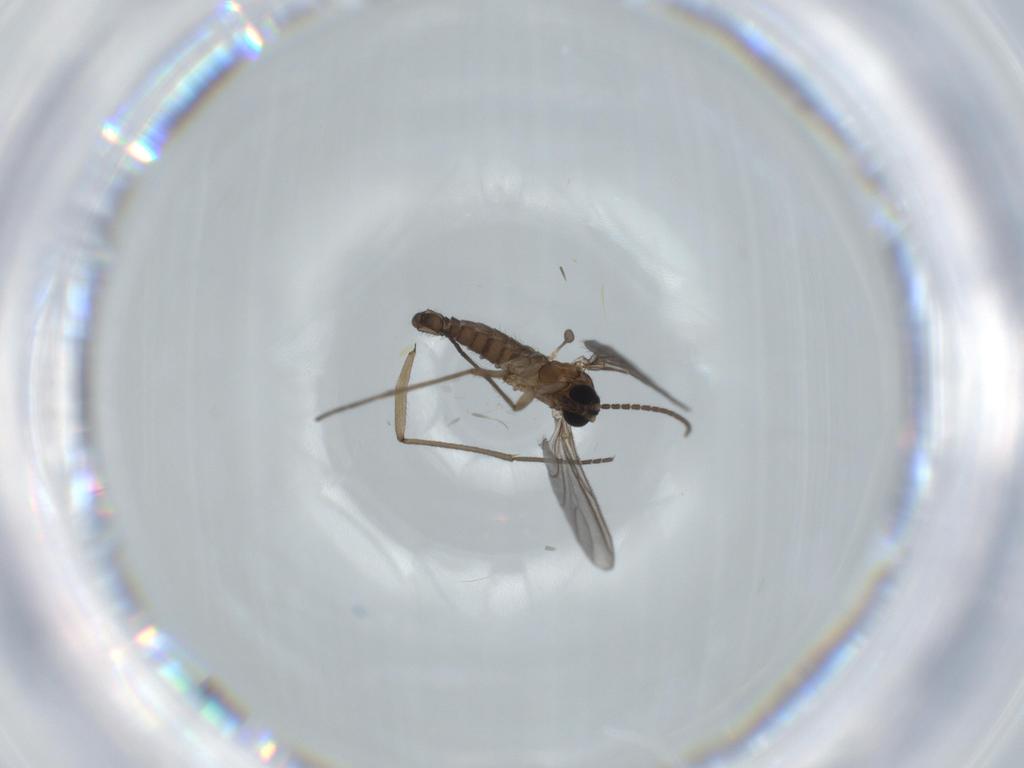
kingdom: Animalia
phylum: Arthropoda
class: Insecta
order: Diptera
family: Sciaridae
